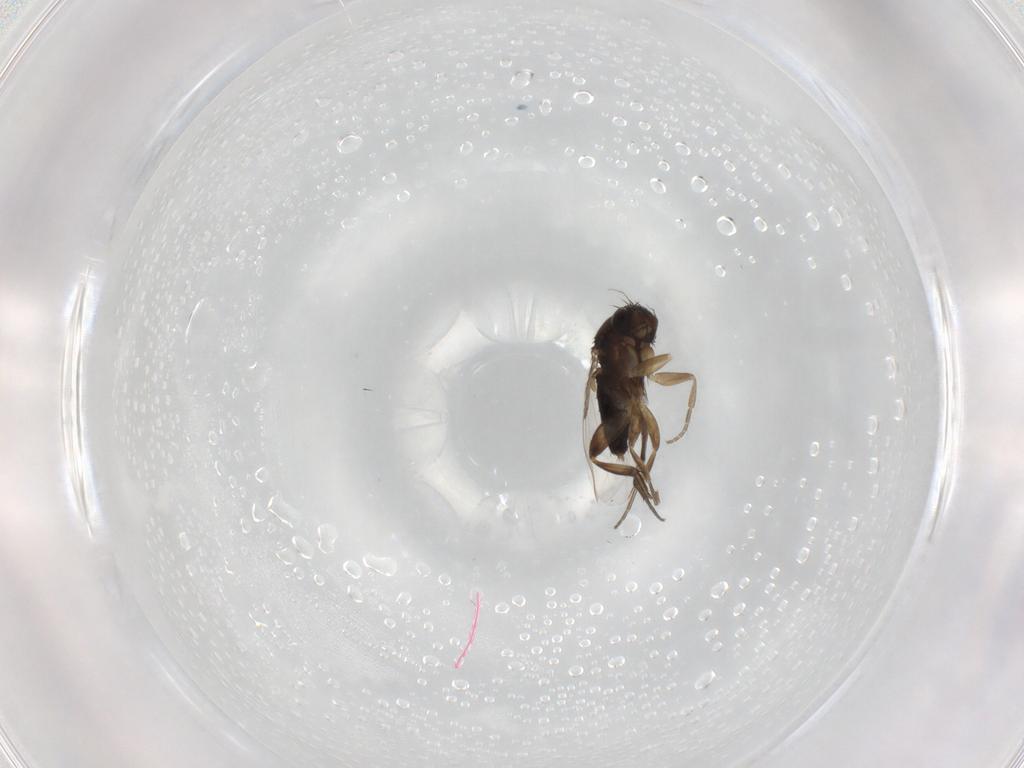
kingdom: Animalia
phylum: Arthropoda
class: Insecta
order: Diptera
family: Phoridae
